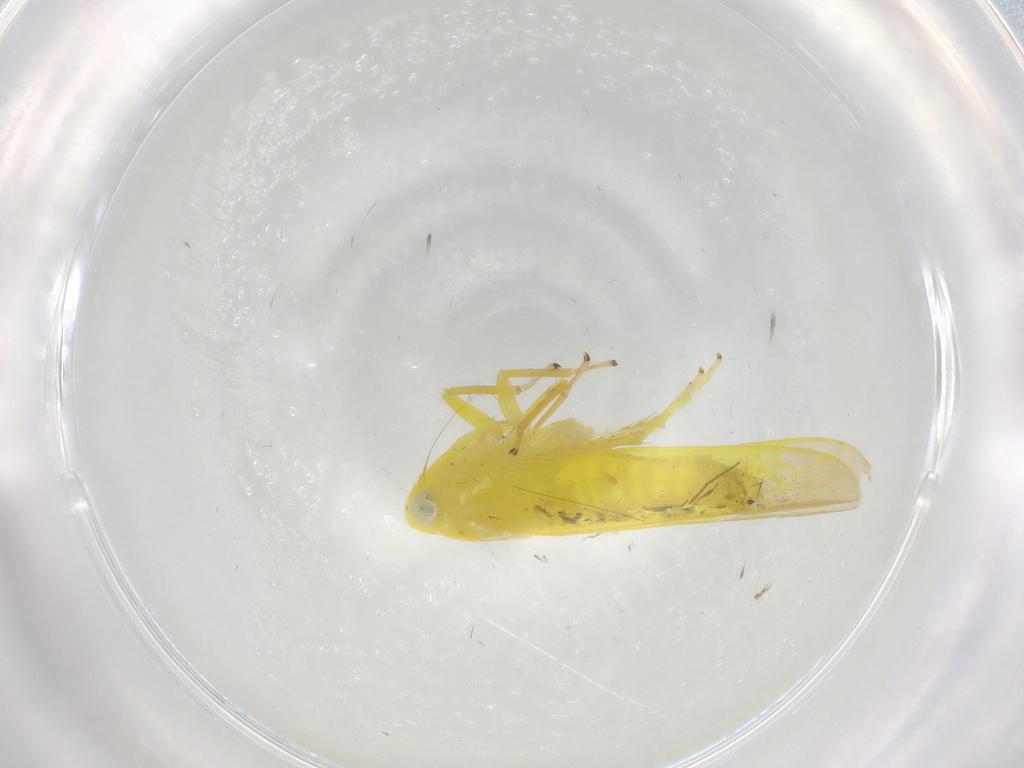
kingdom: Animalia
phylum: Arthropoda
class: Insecta
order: Hemiptera
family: Cicadellidae
